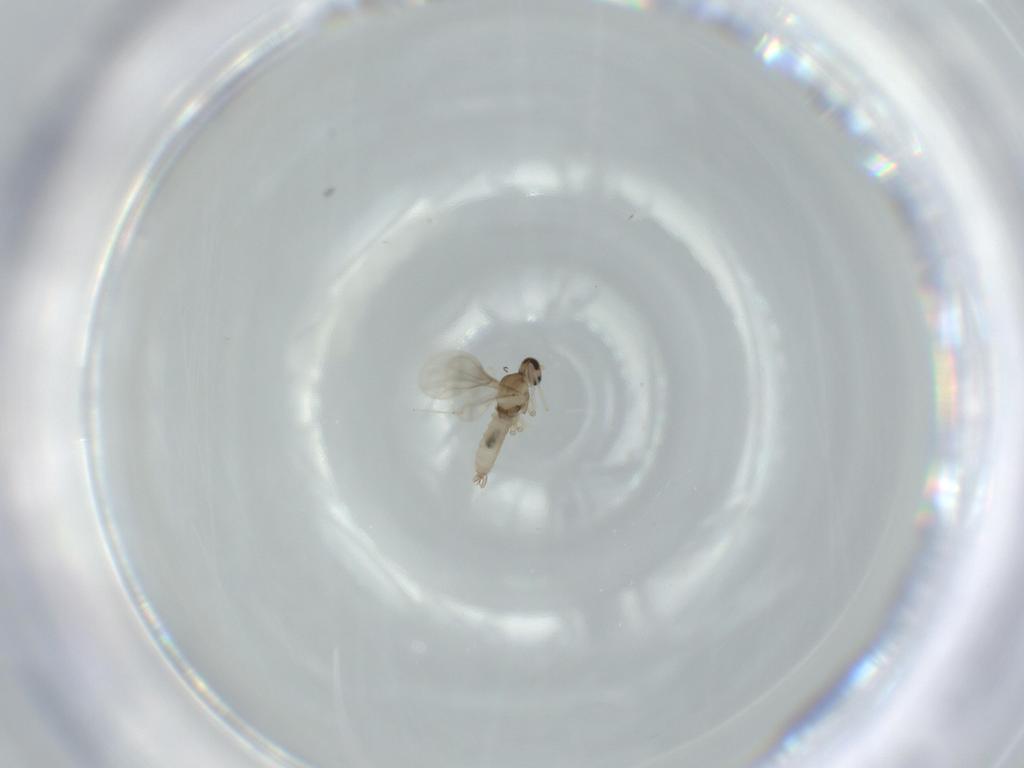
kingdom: Animalia
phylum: Arthropoda
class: Insecta
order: Diptera
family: Cecidomyiidae
